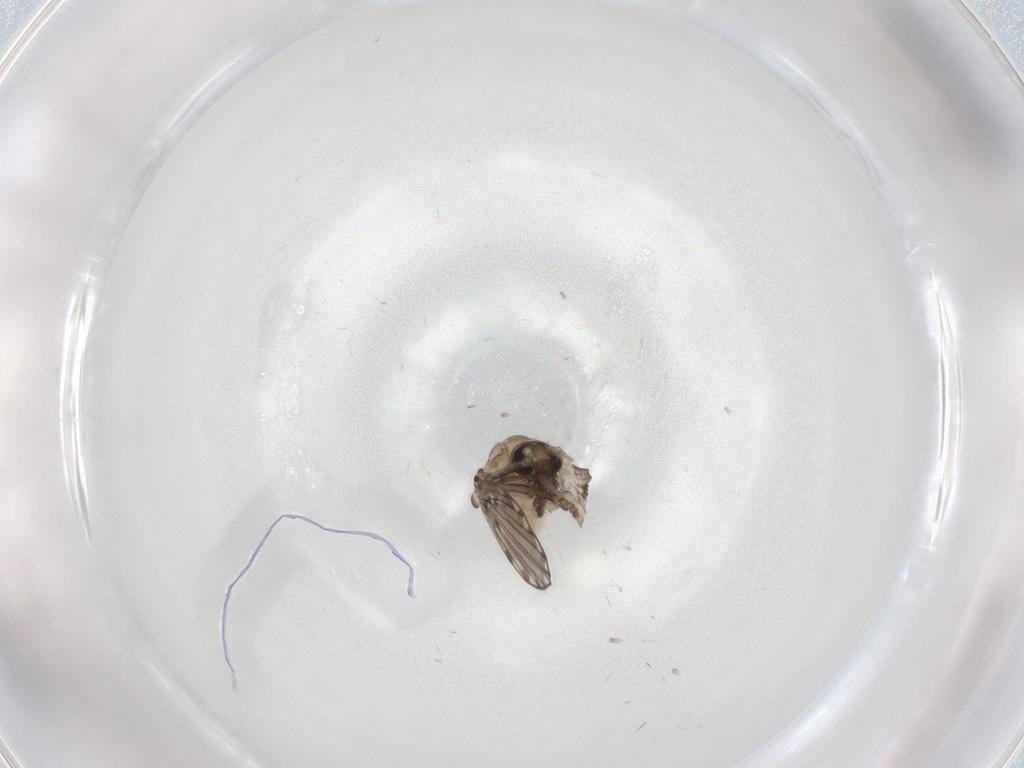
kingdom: Animalia
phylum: Arthropoda
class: Insecta
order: Diptera
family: Psychodidae
